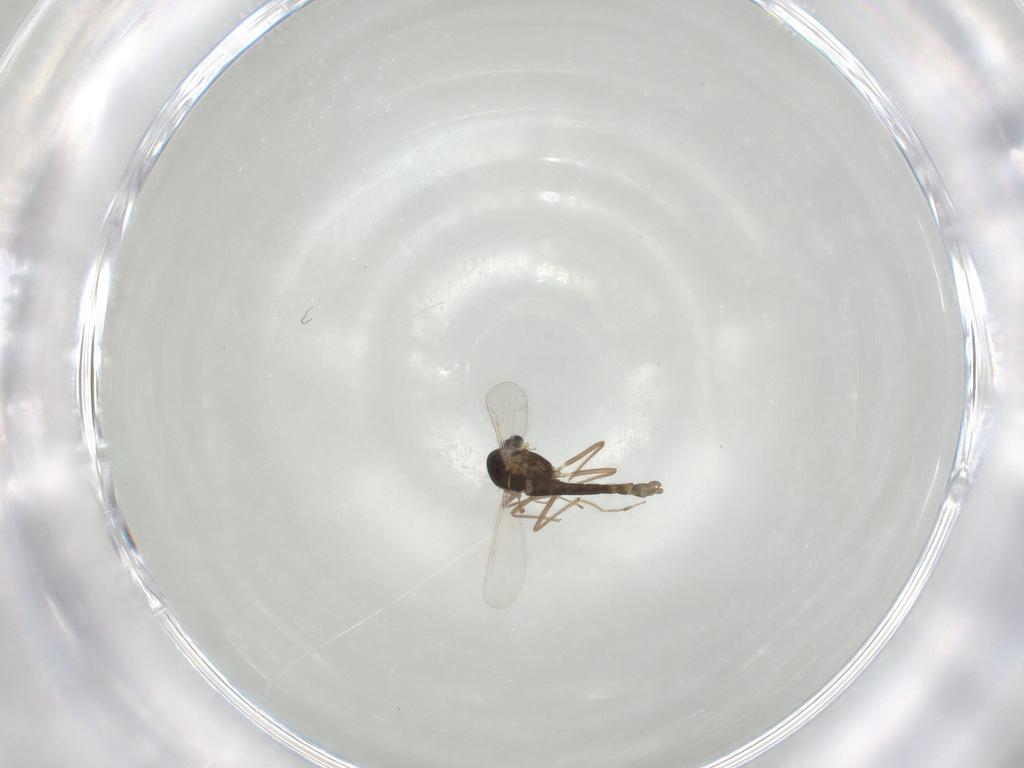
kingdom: Animalia
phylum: Arthropoda
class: Insecta
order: Diptera
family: Chironomidae
